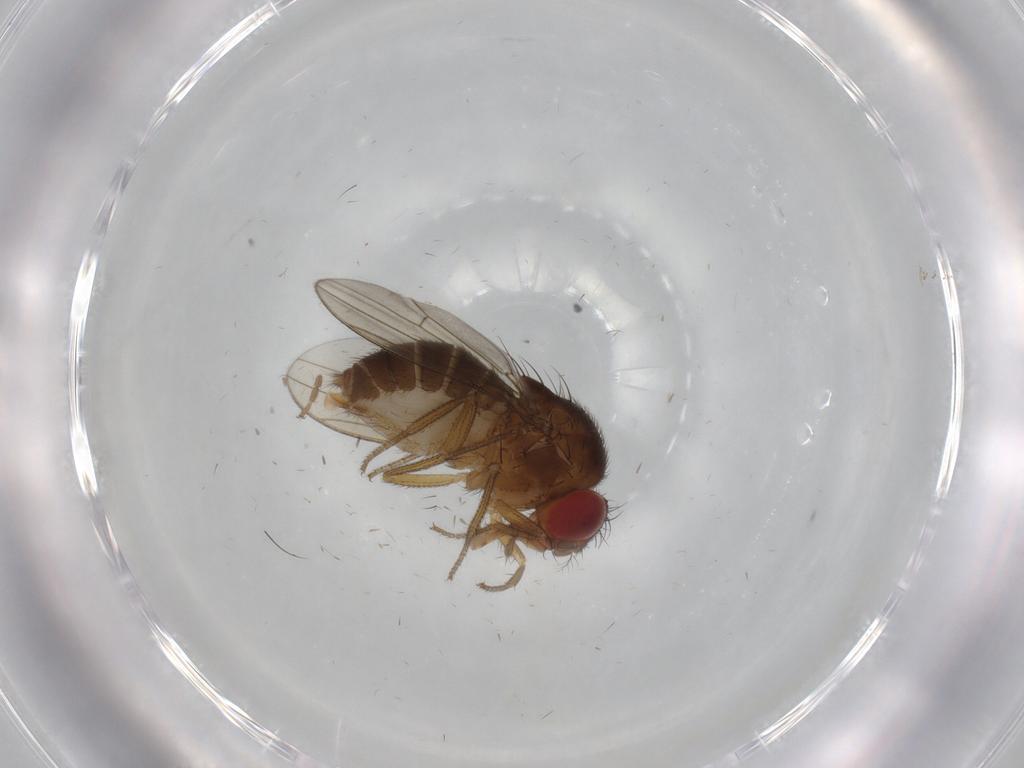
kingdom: Animalia
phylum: Arthropoda
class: Insecta
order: Diptera
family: Drosophilidae
